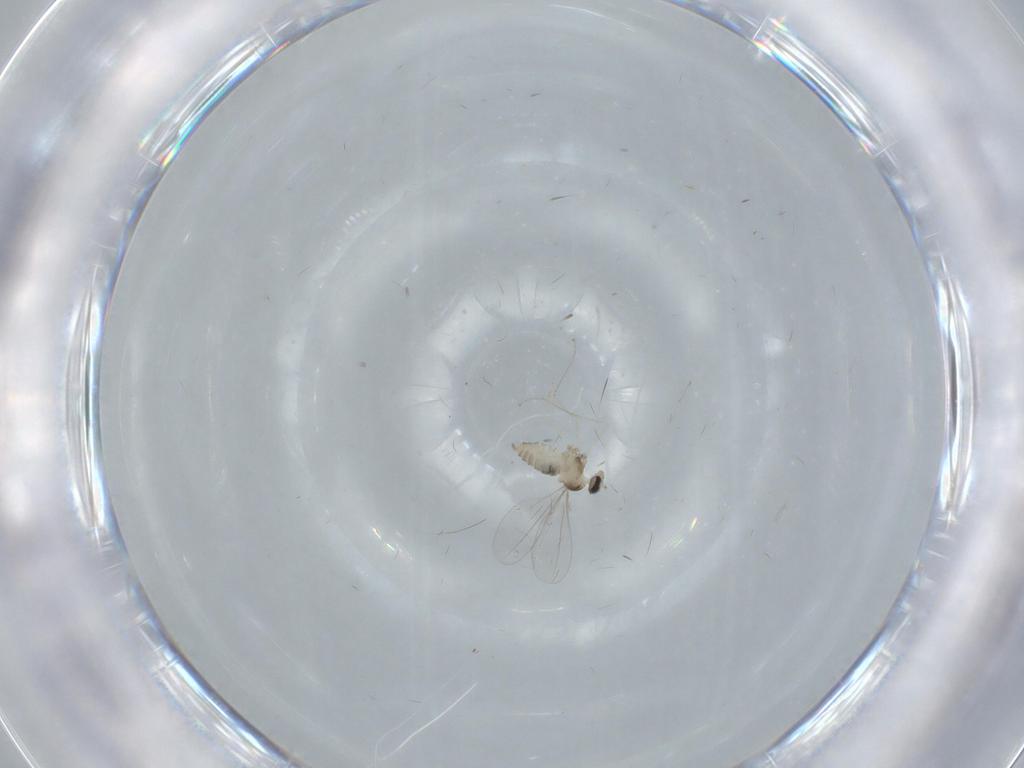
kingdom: Animalia
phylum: Arthropoda
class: Insecta
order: Diptera
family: Cecidomyiidae
